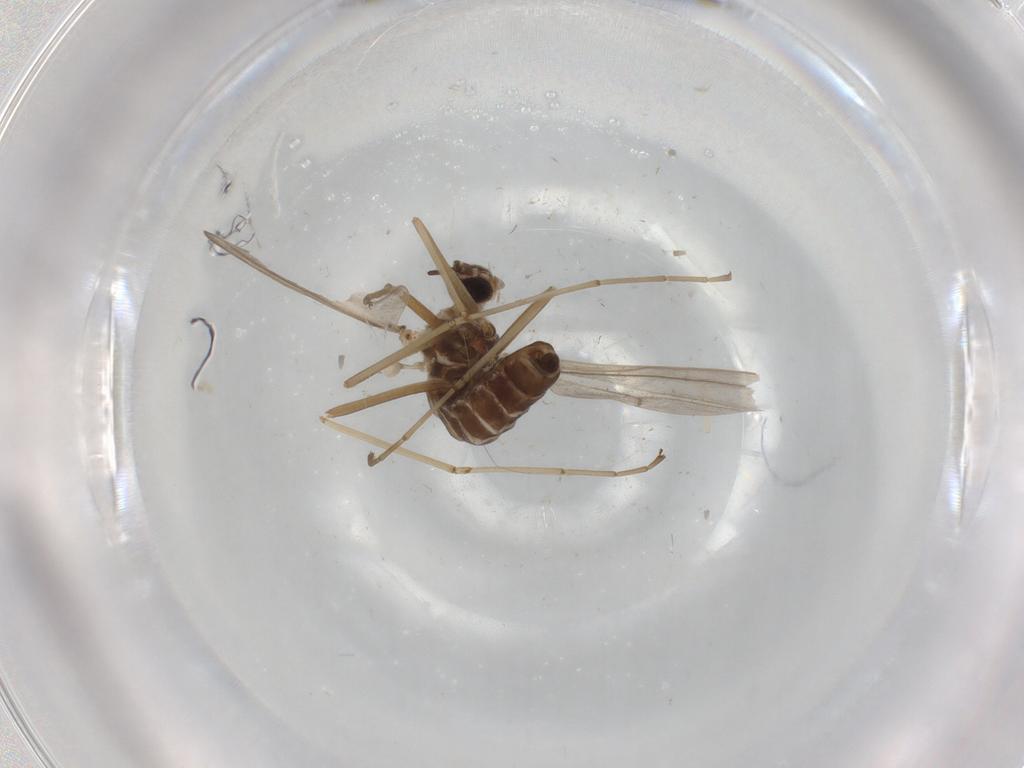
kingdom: Animalia
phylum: Arthropoda
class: Insecta
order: Diptera
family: Cecidomyiidae
